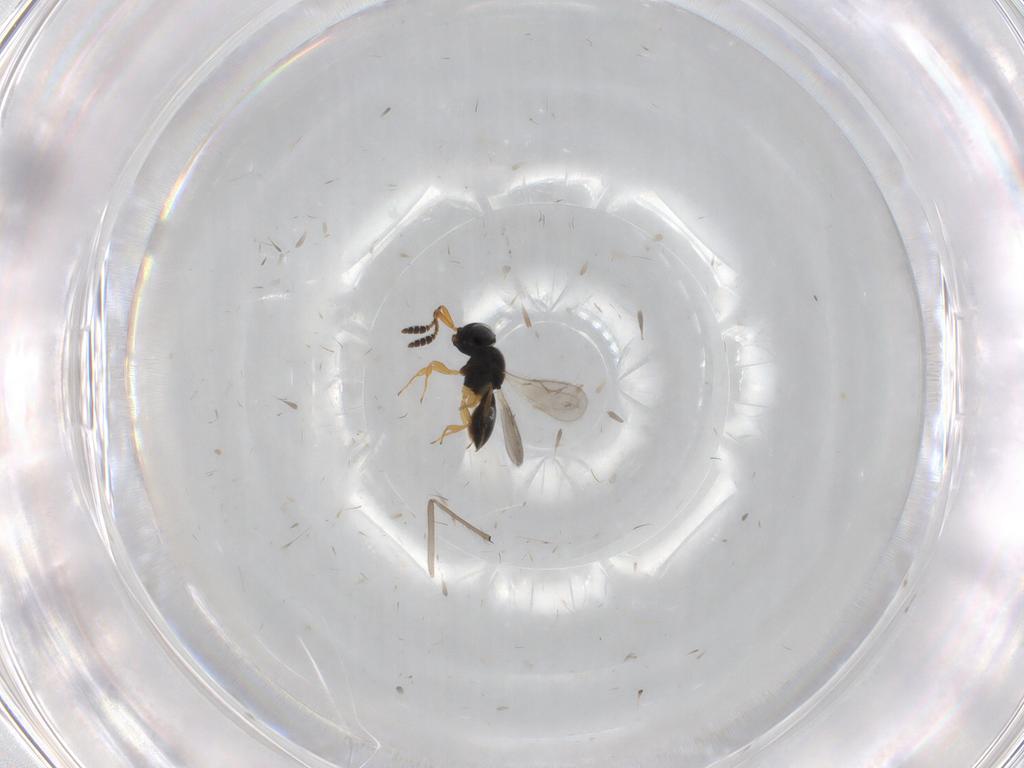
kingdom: Animalia
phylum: Arthropoda
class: Insecta
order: Hymenoptera
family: Scelionidae
